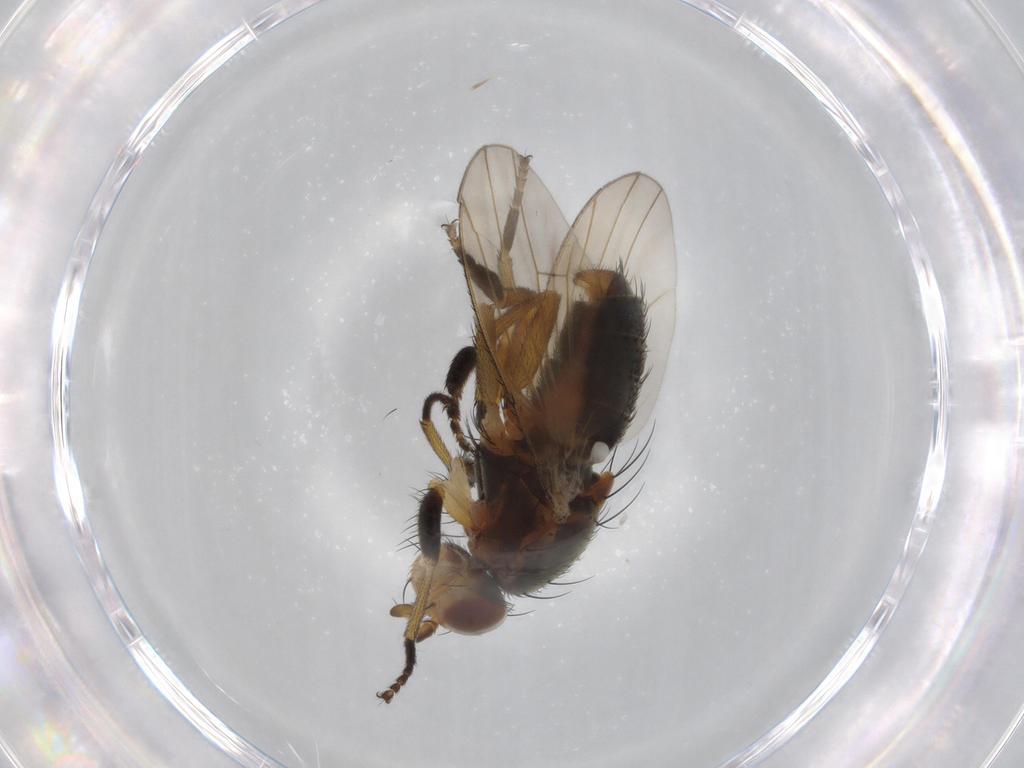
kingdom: Animalia
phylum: Arthropoda
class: Insecta
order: Diptera
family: Heleomyzidae
